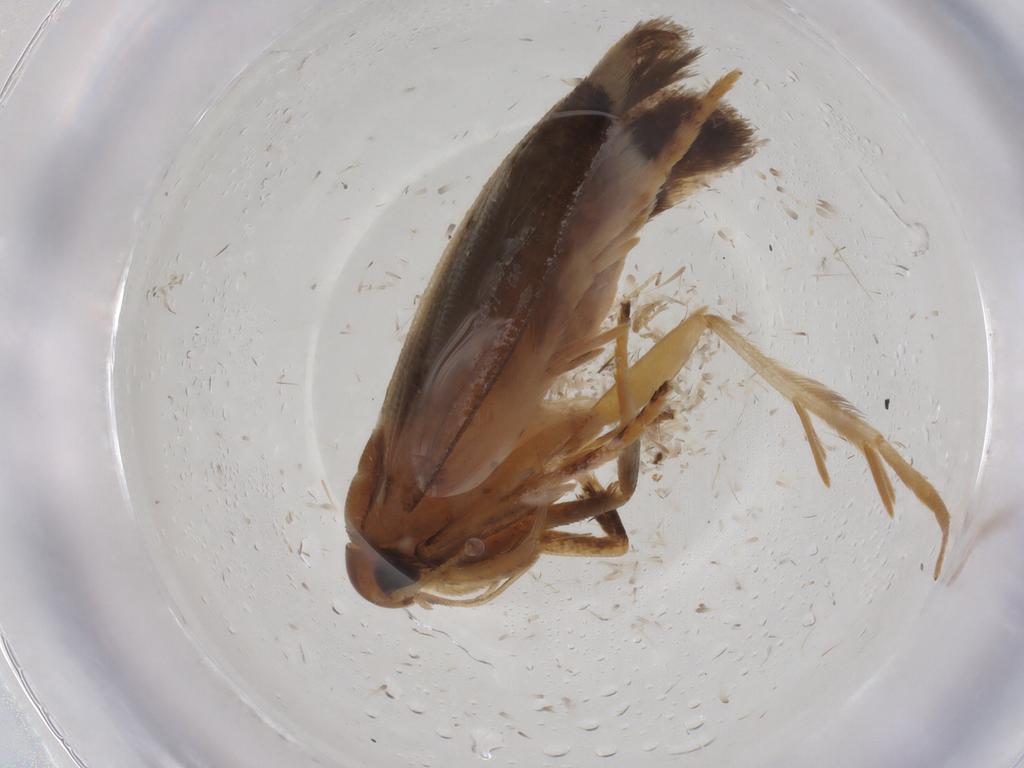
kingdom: Animalia
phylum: Arthropoda
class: Insecta
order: Lepidoptera
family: Gelechiidae
